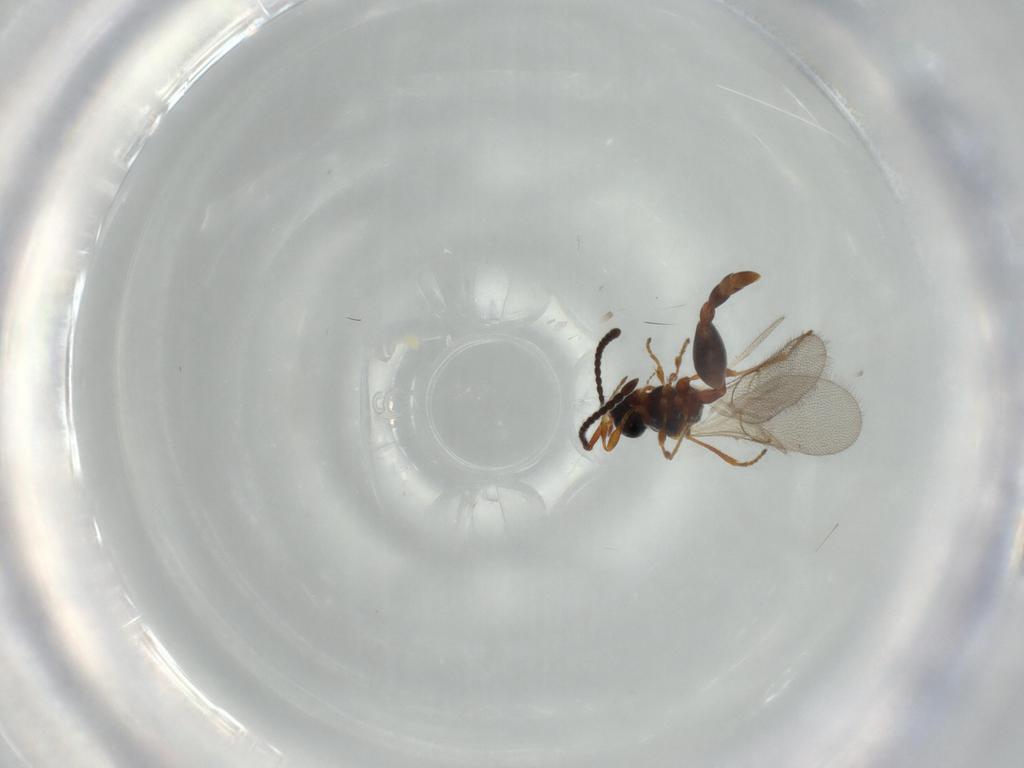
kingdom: Animalia
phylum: Arthropoda
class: Insecta
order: Hymenoptera
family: Diapriidae
